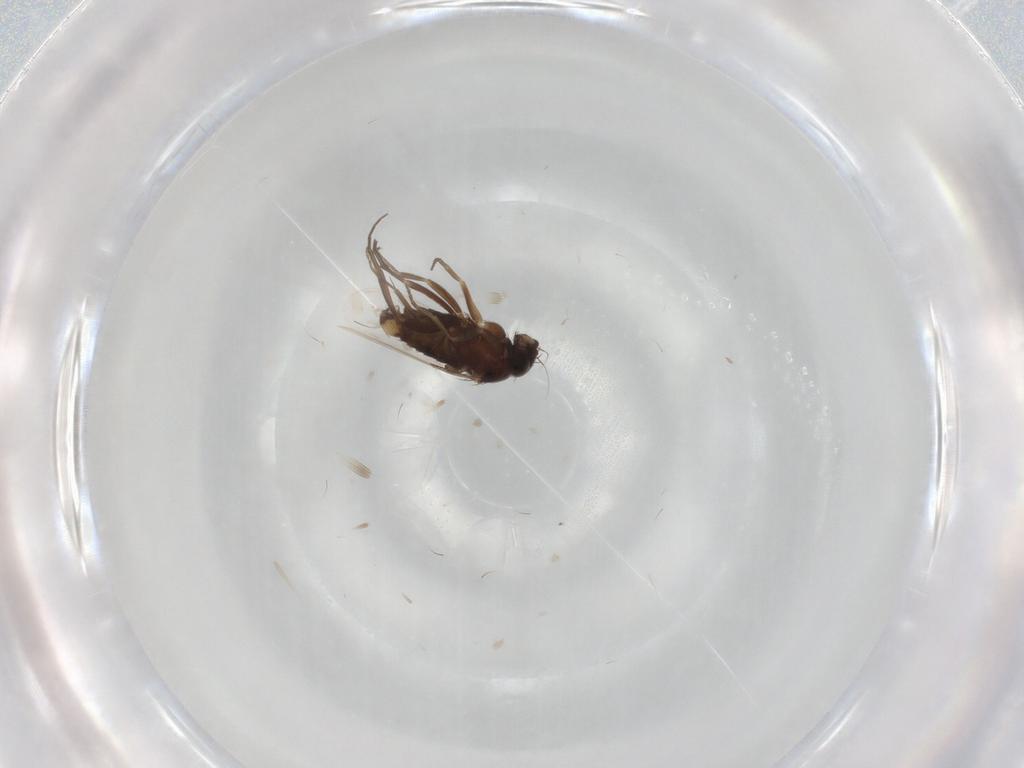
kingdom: Animalia
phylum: Arthropoda
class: Insecta
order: Diptera
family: Phoridae
